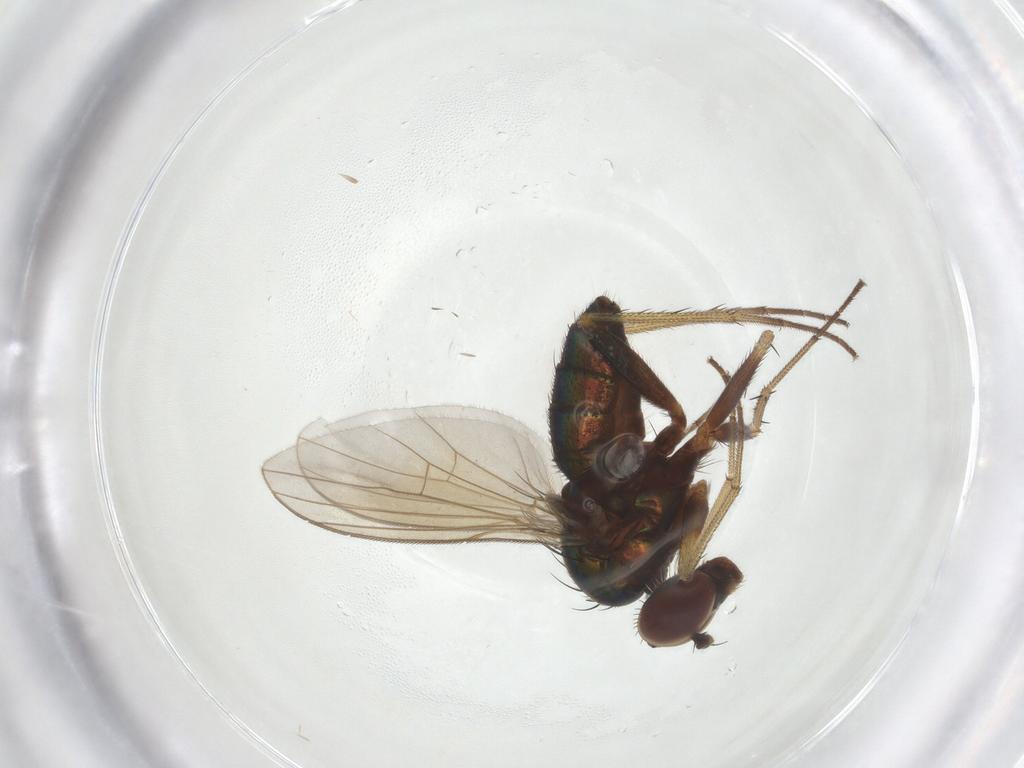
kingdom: Animalia
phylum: Arthropoda
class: Insecta
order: Diptera
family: Dolichopodidae
